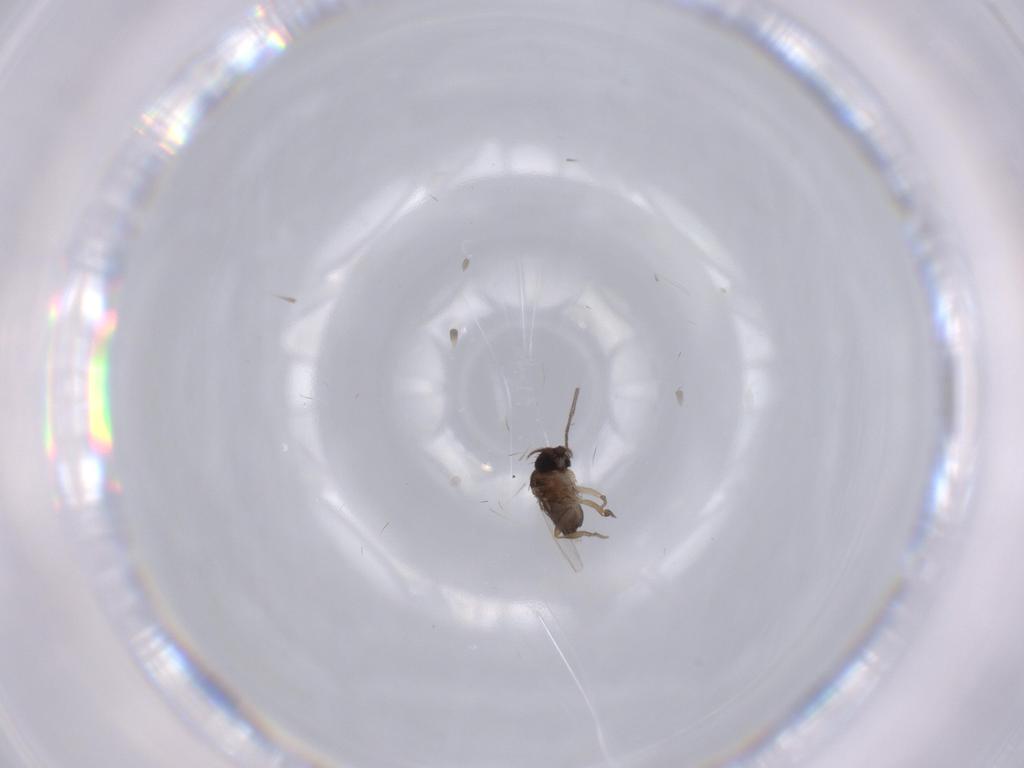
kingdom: Animalia
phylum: Arthropoda
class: Insecta
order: Diptera
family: Phoridae
